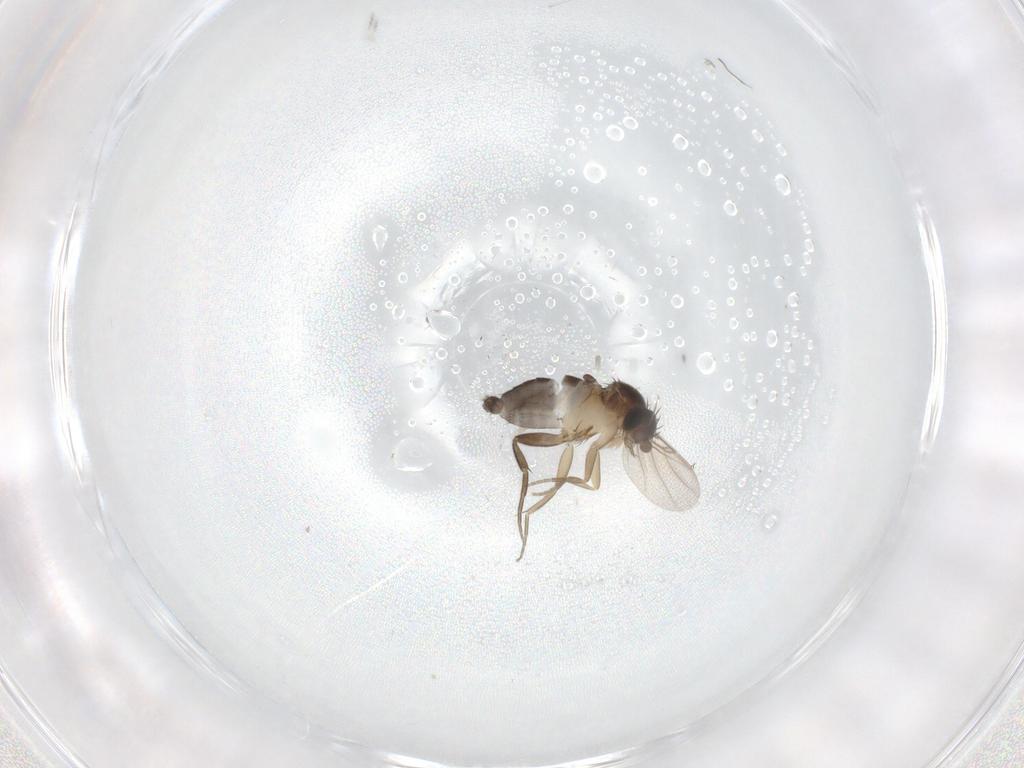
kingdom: Animalia
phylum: Arthropoda
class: Insecta
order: Diptera
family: Phoridae
